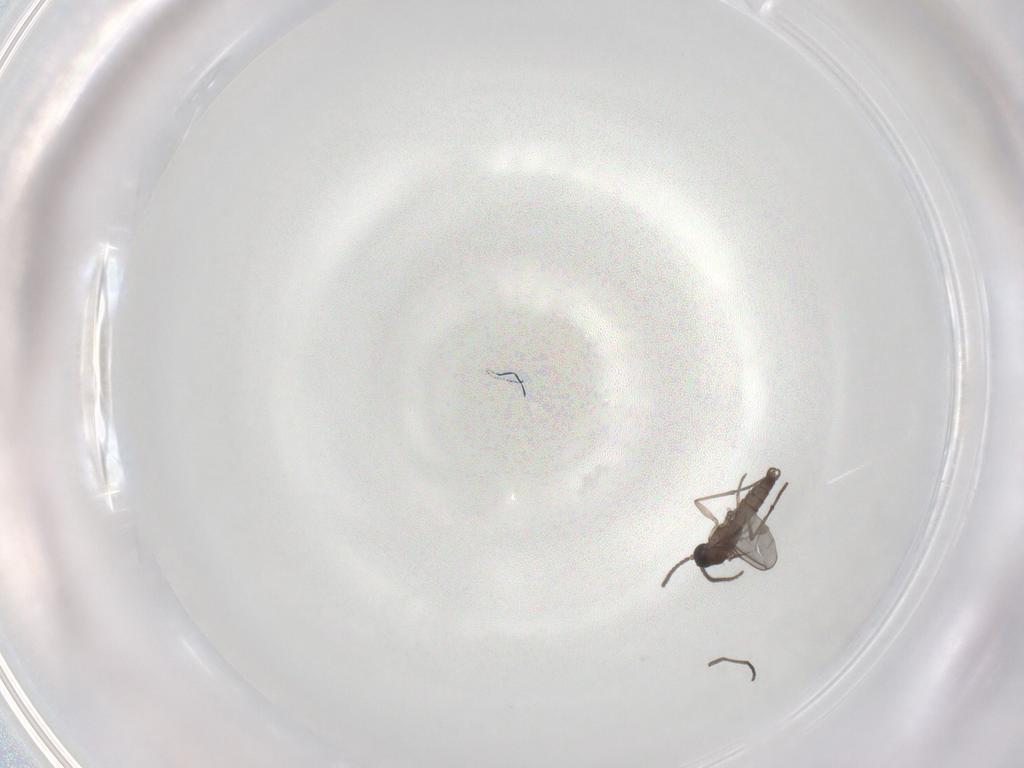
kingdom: Animalia
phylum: Arthropoda
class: Insecta
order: Diptera
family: Sciaridae
